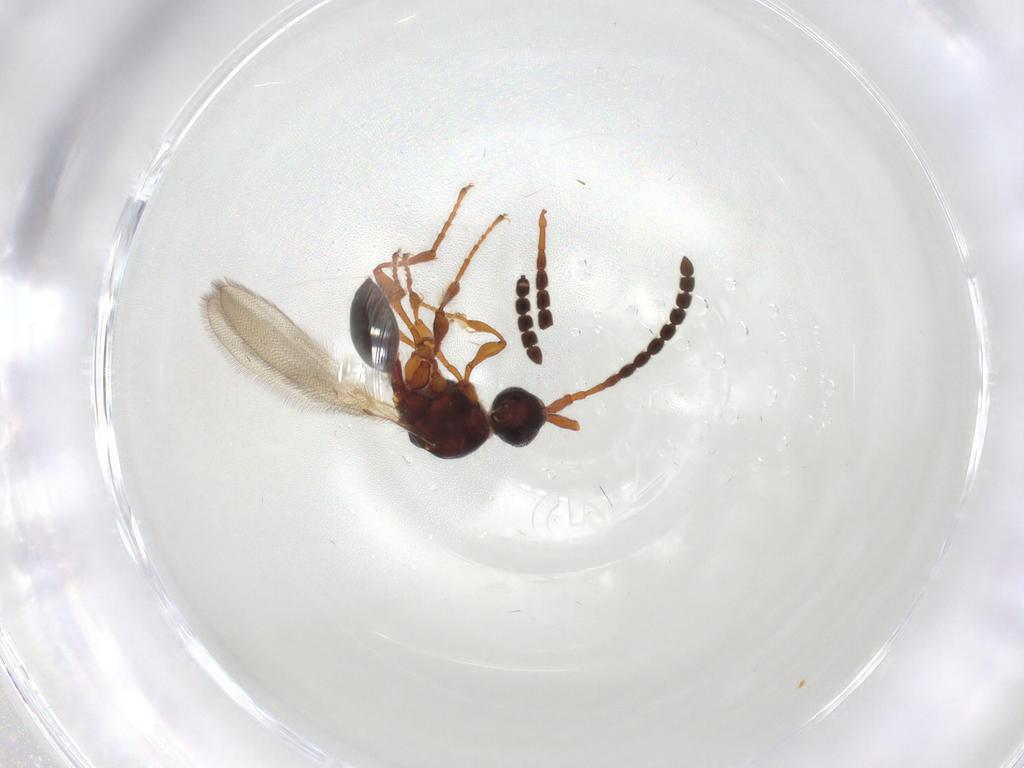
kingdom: Animalia
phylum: Arthropoda
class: Insecta
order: Hymenoptera
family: Diapriidae
